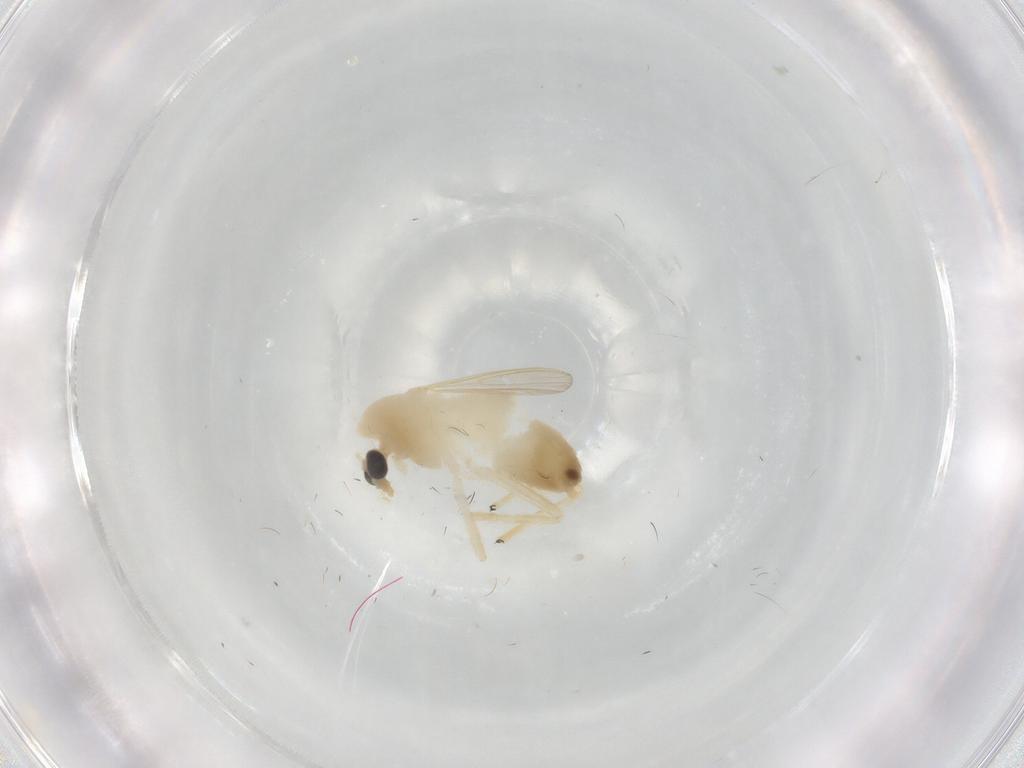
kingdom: Animalia
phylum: Arthropoda
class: Insecta
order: Diptera
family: Chironomidae
